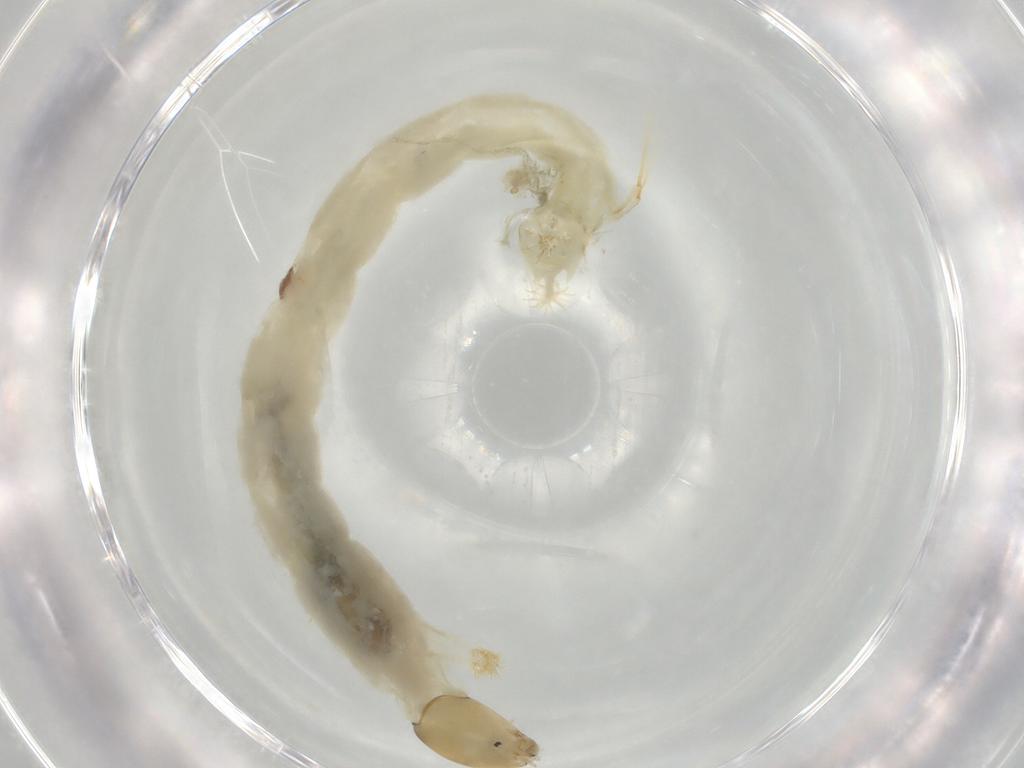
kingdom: Animalia
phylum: Arthropoda
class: Insecta
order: Diptera
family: Chironomidae
